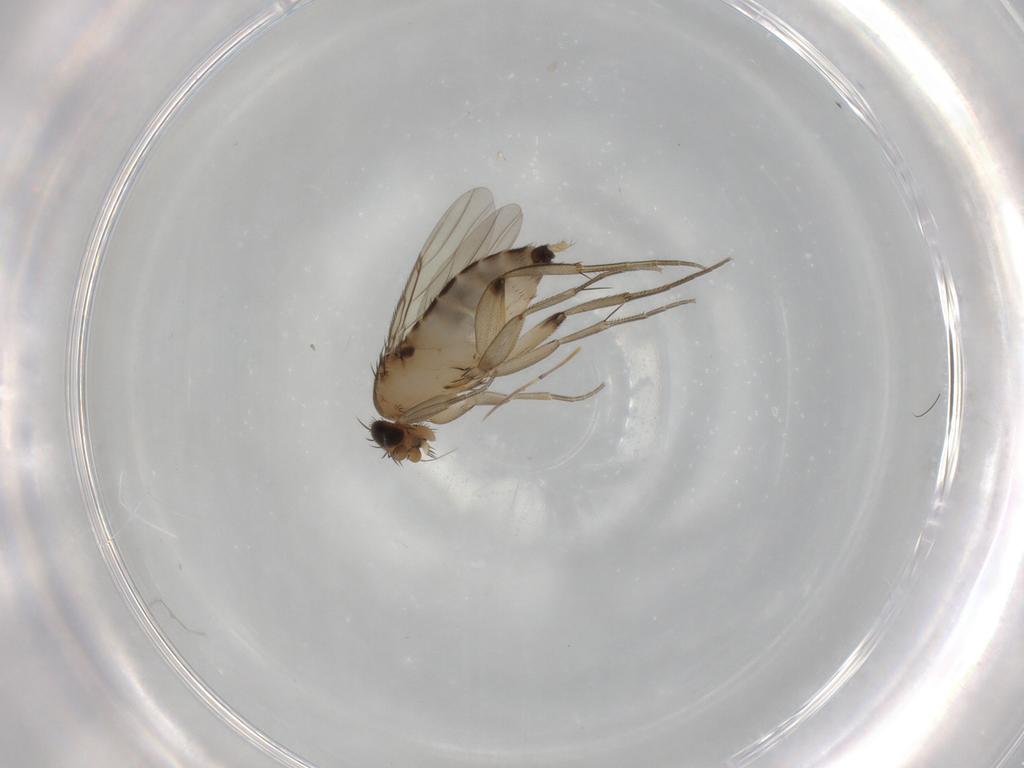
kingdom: Animalia
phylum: Arthropoda
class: Insecta
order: Diptera
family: Phoridae
